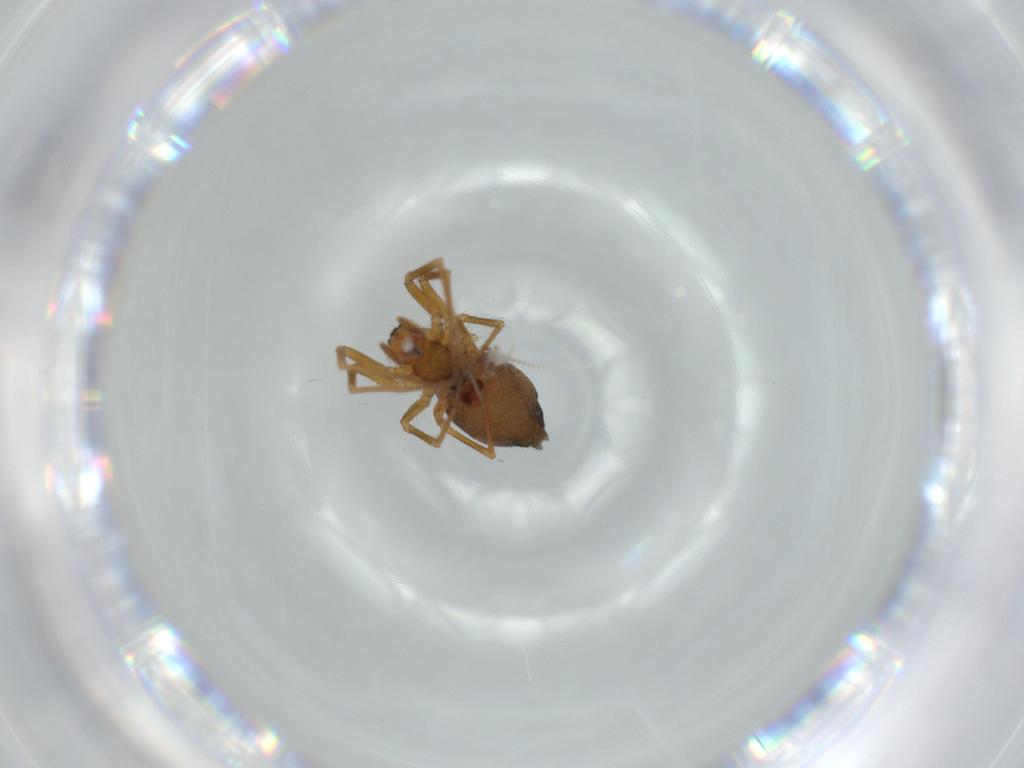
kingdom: Animalia
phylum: Arthropoda
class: Arachnida
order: Araneae
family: Linyphiidae
